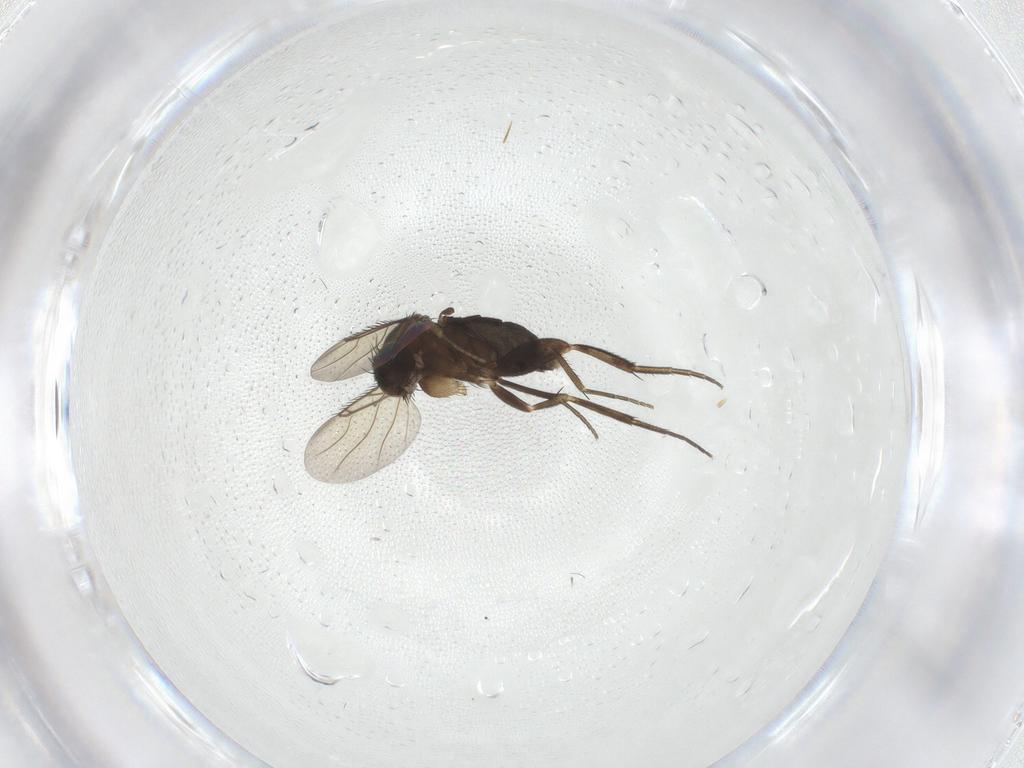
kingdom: Animalia
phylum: Arthropoda
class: Insecta
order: Diptera
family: Phoridae
